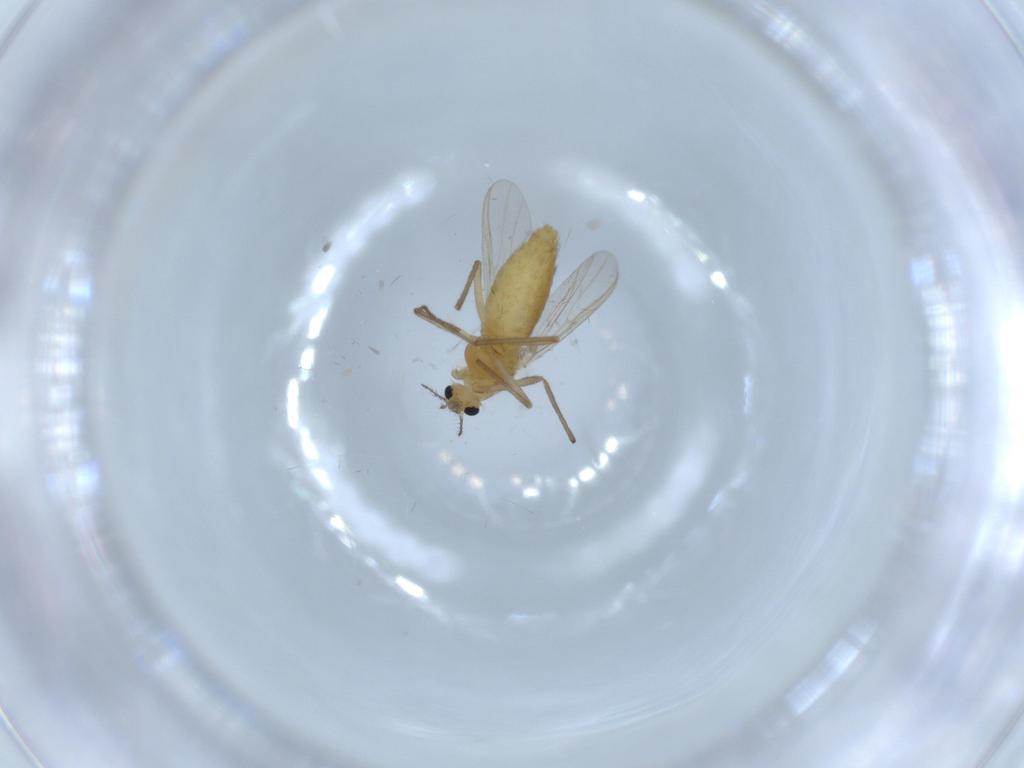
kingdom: Animalia
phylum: Arthropoda
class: Insecta
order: Diptera
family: Chironomidae
